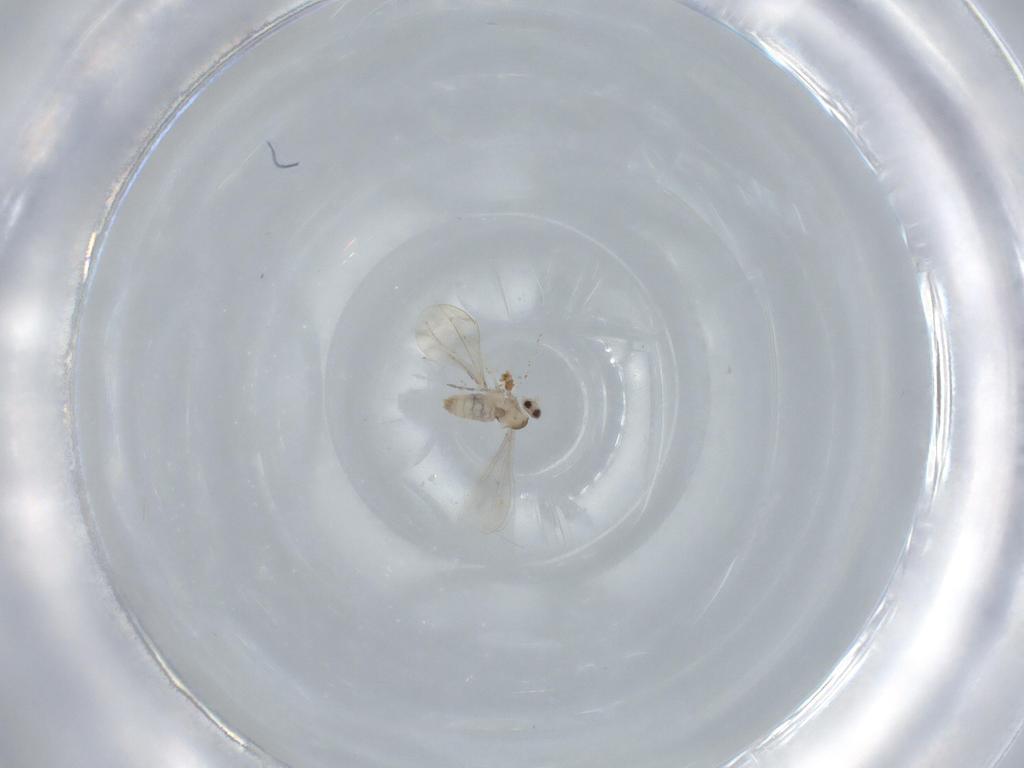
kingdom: Animalia
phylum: Arthropoda
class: Insecta
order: Diptera
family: Cecidomyiidae
